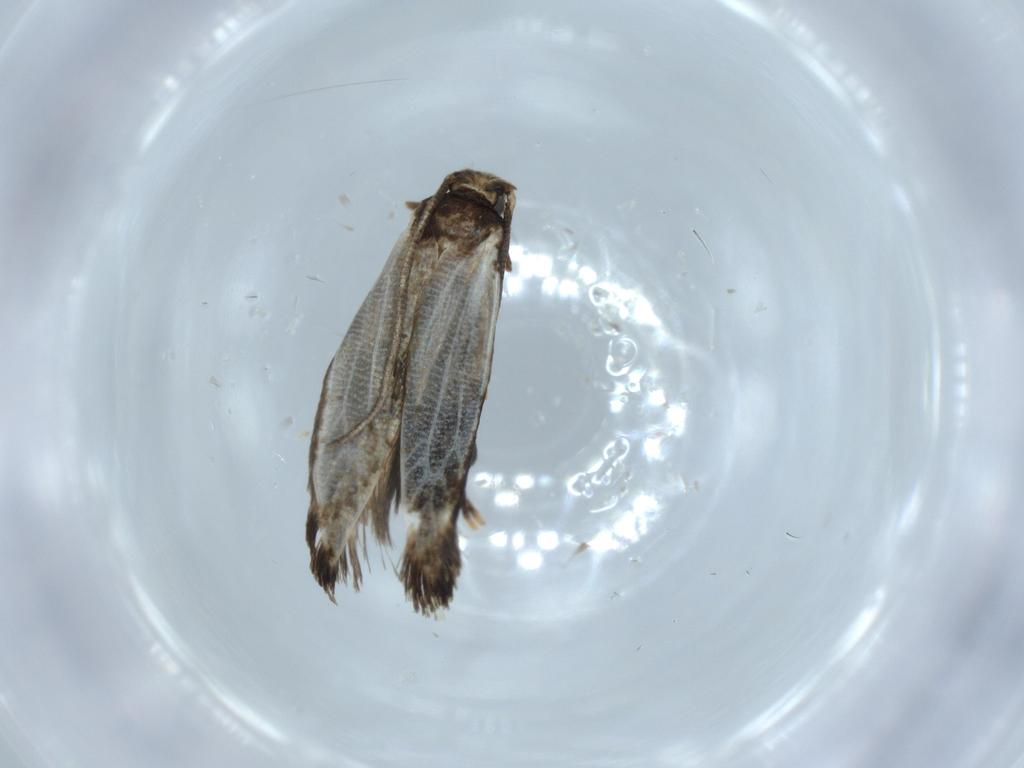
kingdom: Animalia
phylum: Arthropoda
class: Insecta
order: Lepidoptera
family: Tineidae
